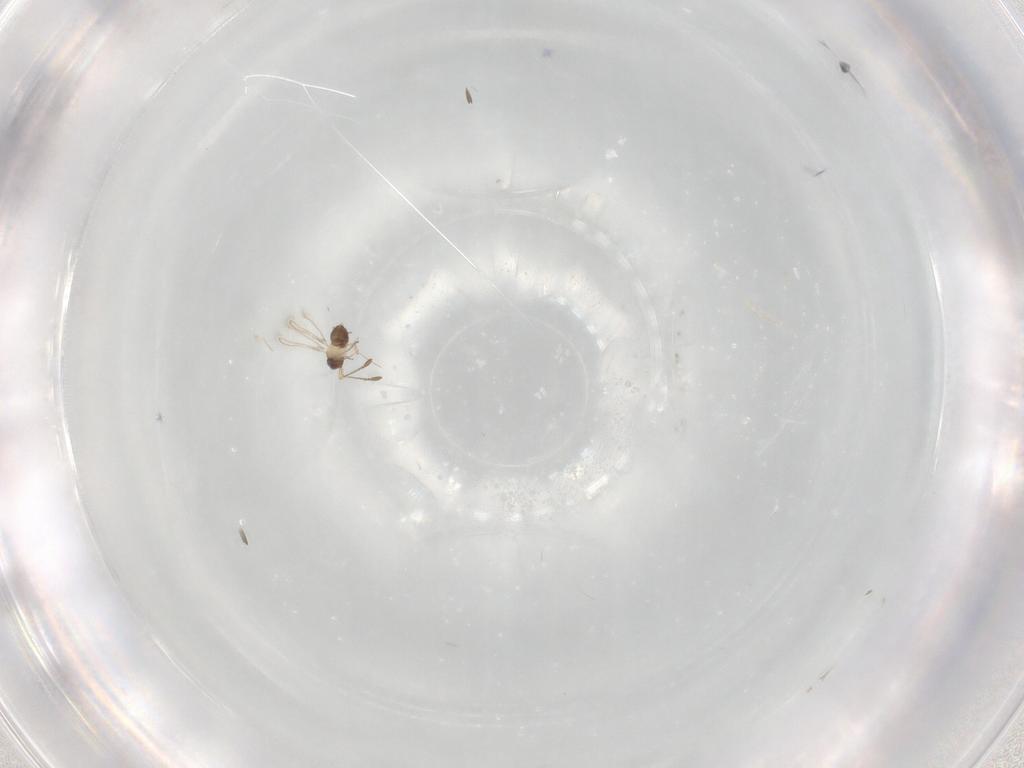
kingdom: Animalia
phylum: Arthropoda
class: Insecta
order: Hymenoptera
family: Mymaridae
